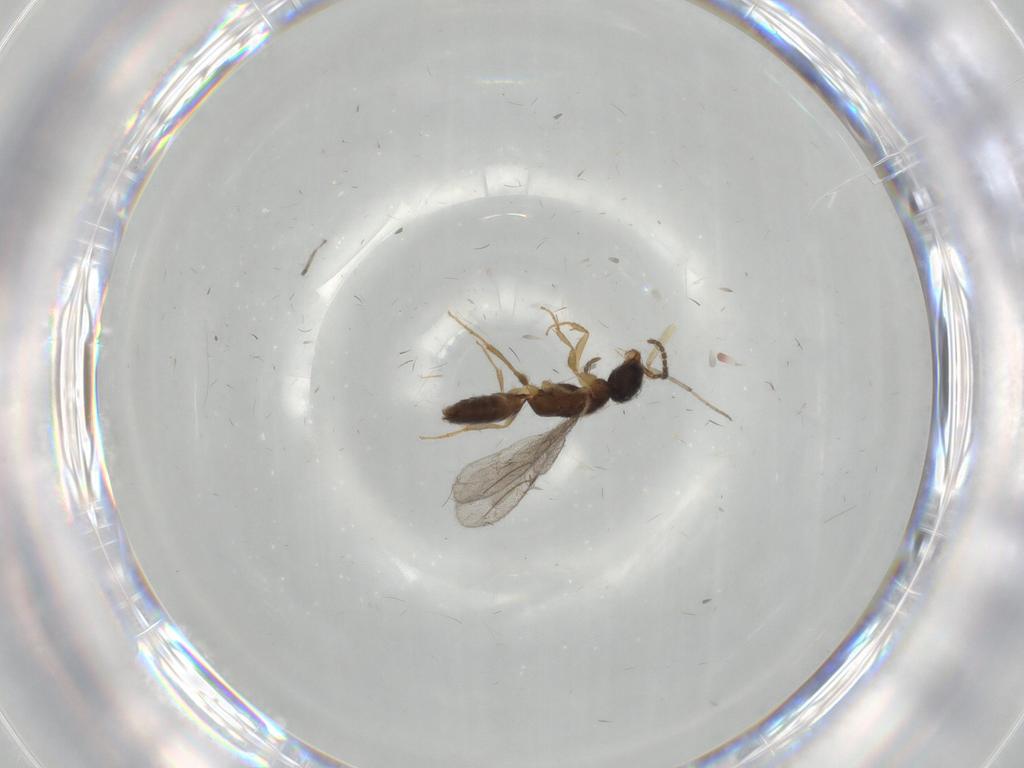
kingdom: Animalia
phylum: Arthropoda
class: Insecta
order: Hymenoptera
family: Bethylidae
